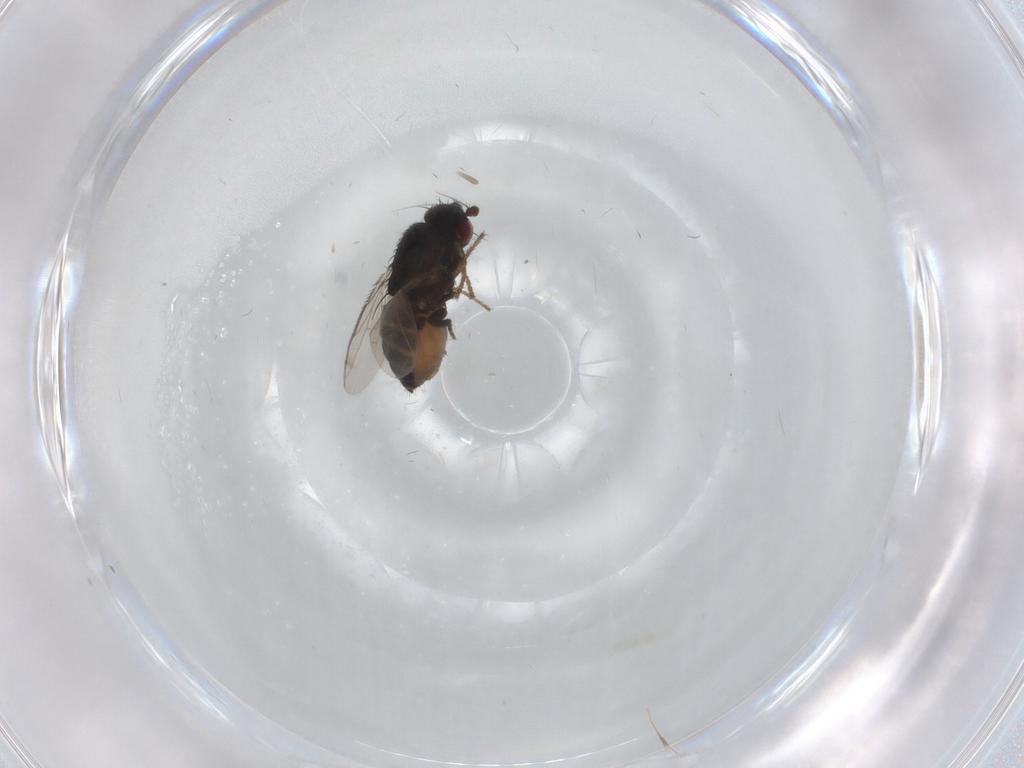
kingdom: Animalia
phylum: Arthropoda
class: Insecta
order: Diptera
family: Sphaeroceridae
